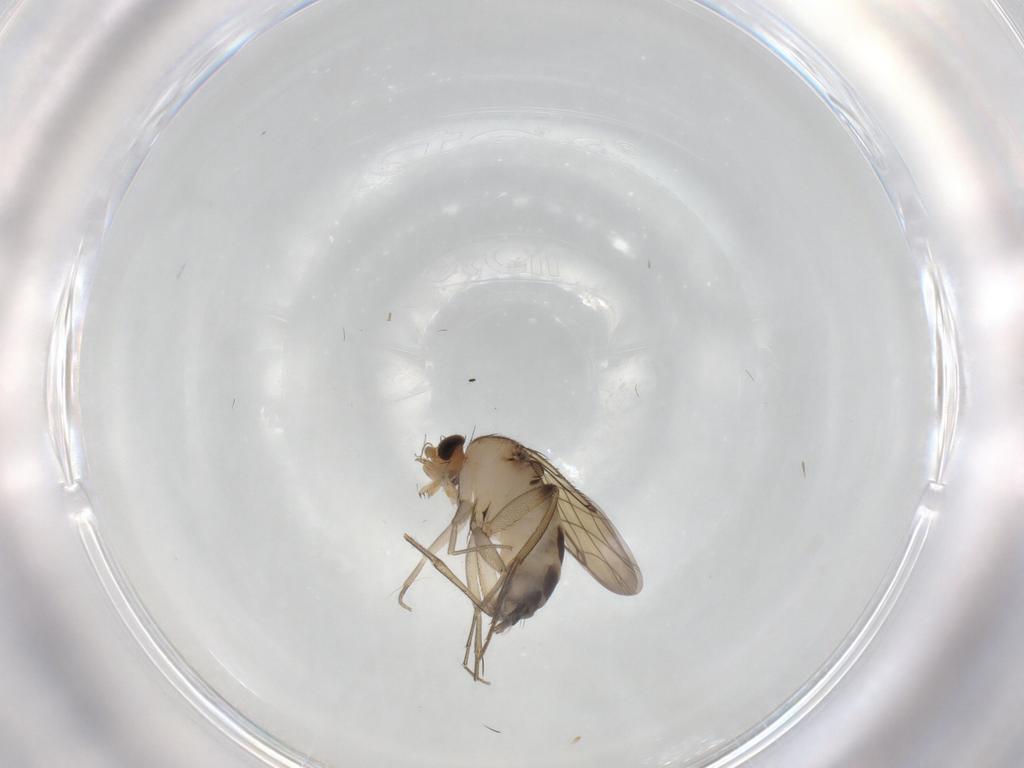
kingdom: Animalia
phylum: Arthropoda
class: Insecta
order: Diptera
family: Phoridae
